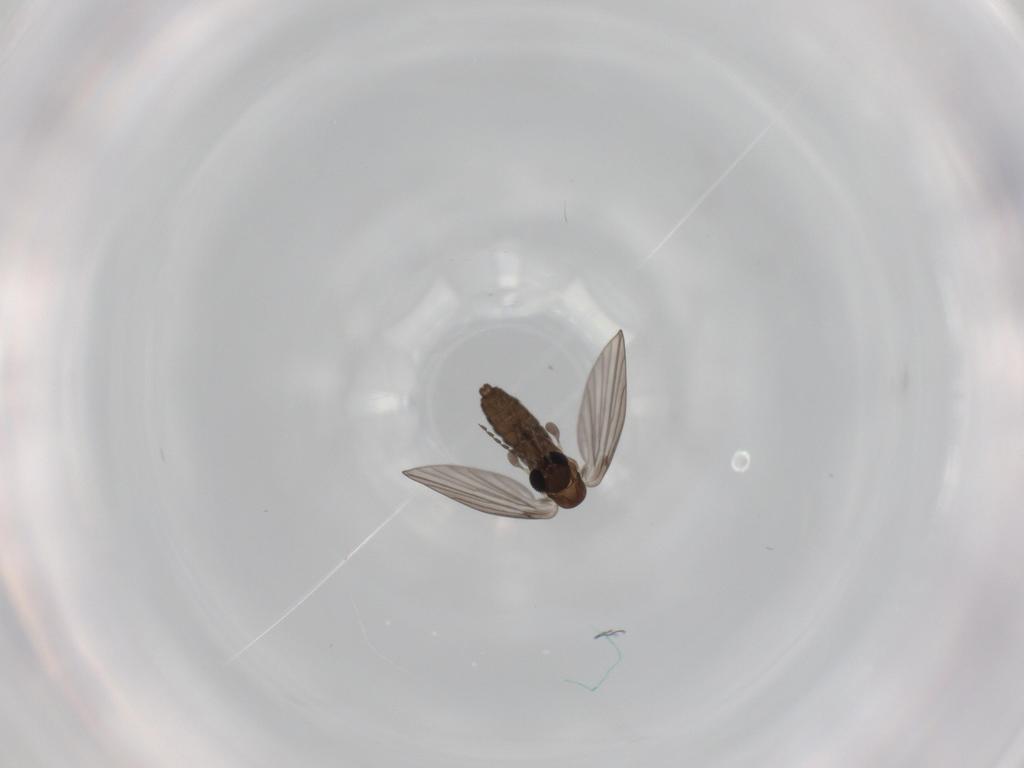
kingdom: Animalia
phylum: Arthropoda
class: Insecta
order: Diptera
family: Psychodidae
